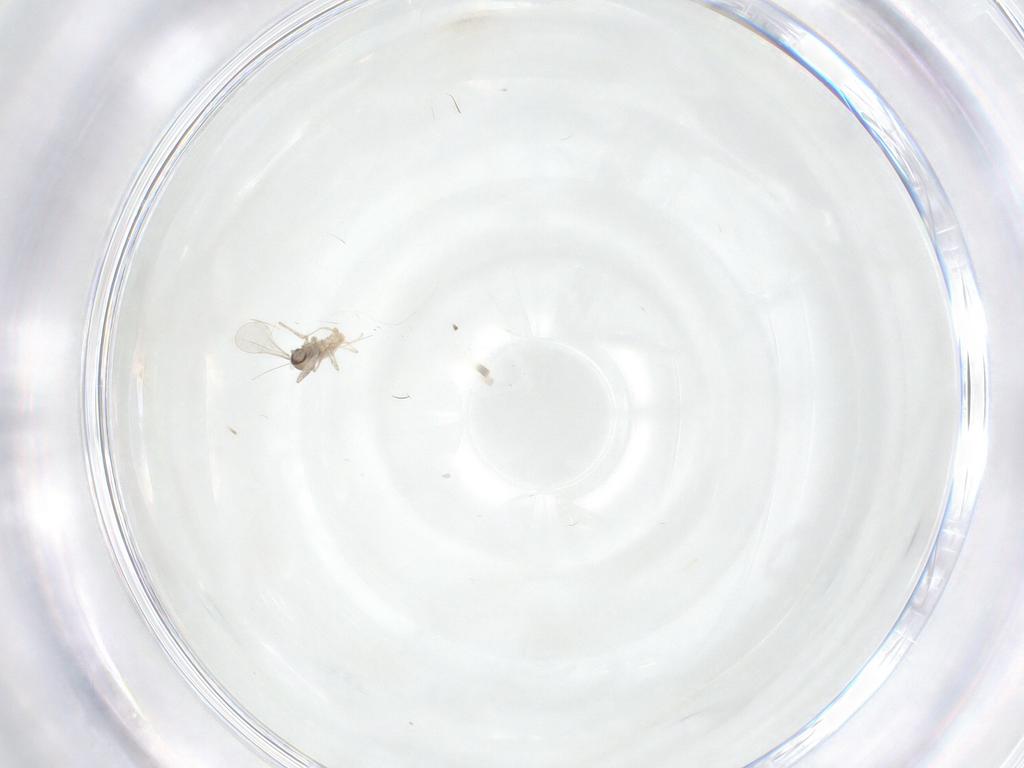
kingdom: Animalia
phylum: Arthropoda
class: Insecta
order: Diptera
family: Cecidomyiidae
